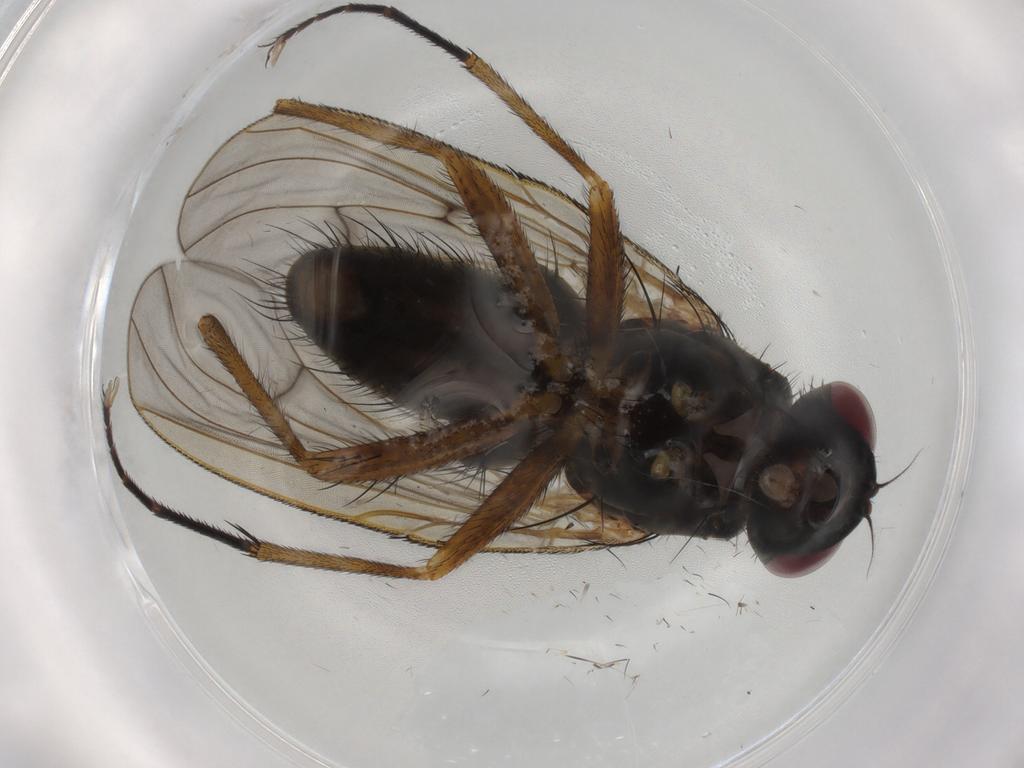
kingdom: Animalia
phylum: Arthropoda
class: Insecta
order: Diptera
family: Muscidae
